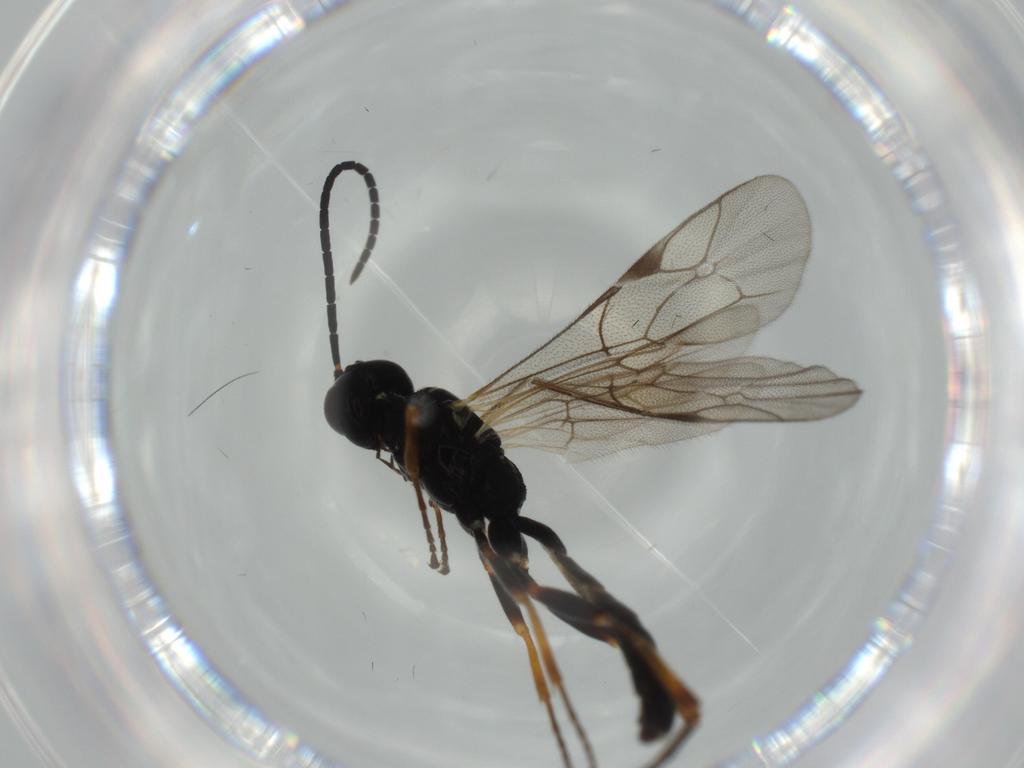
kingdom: Animalia
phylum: Arthropoda
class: Insecta
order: Hymenoptera
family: Ichneumonidae
